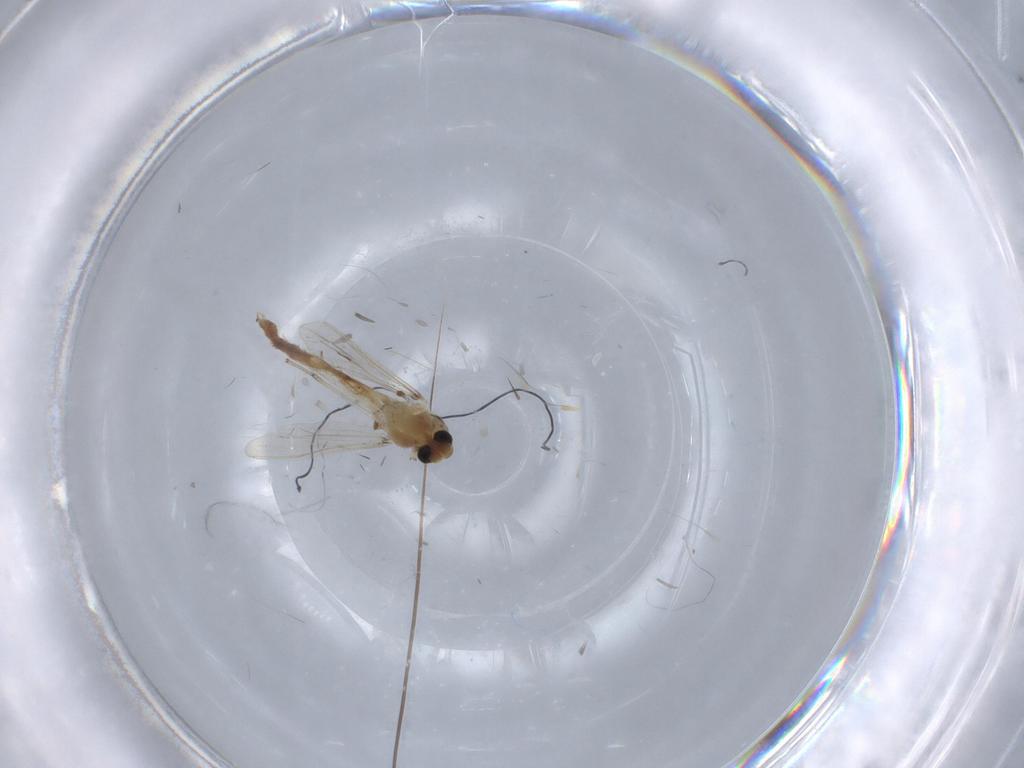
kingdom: Animalia
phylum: Arthropoda
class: Insecta
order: Diptera
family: Chironomidae
